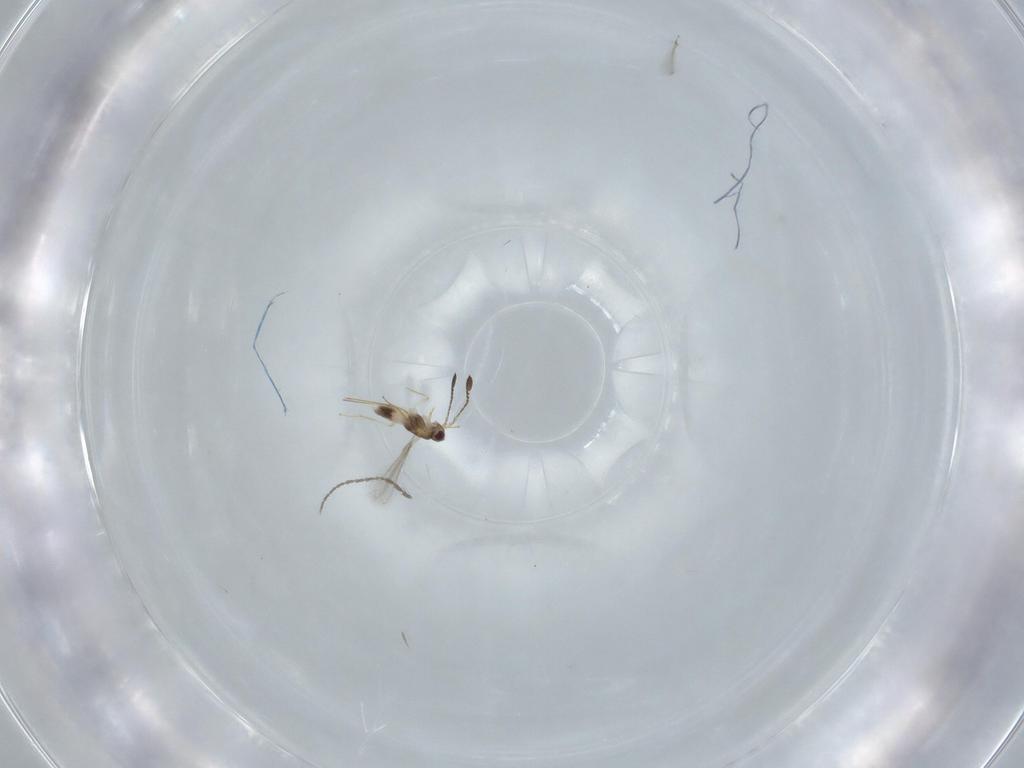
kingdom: Animalia
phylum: Arthropoda
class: Insecta
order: Hymenoptera
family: Mymaridae
